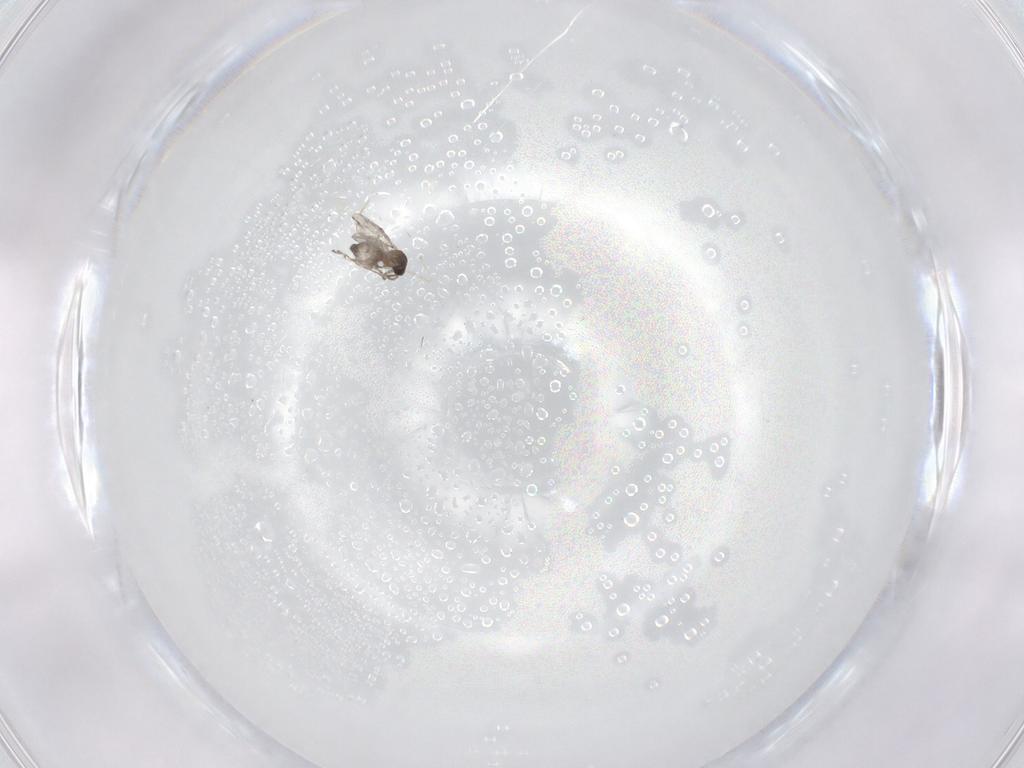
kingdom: Animalia
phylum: Arthropoda
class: Insecta
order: Diptera
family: Cecidomyiidae
